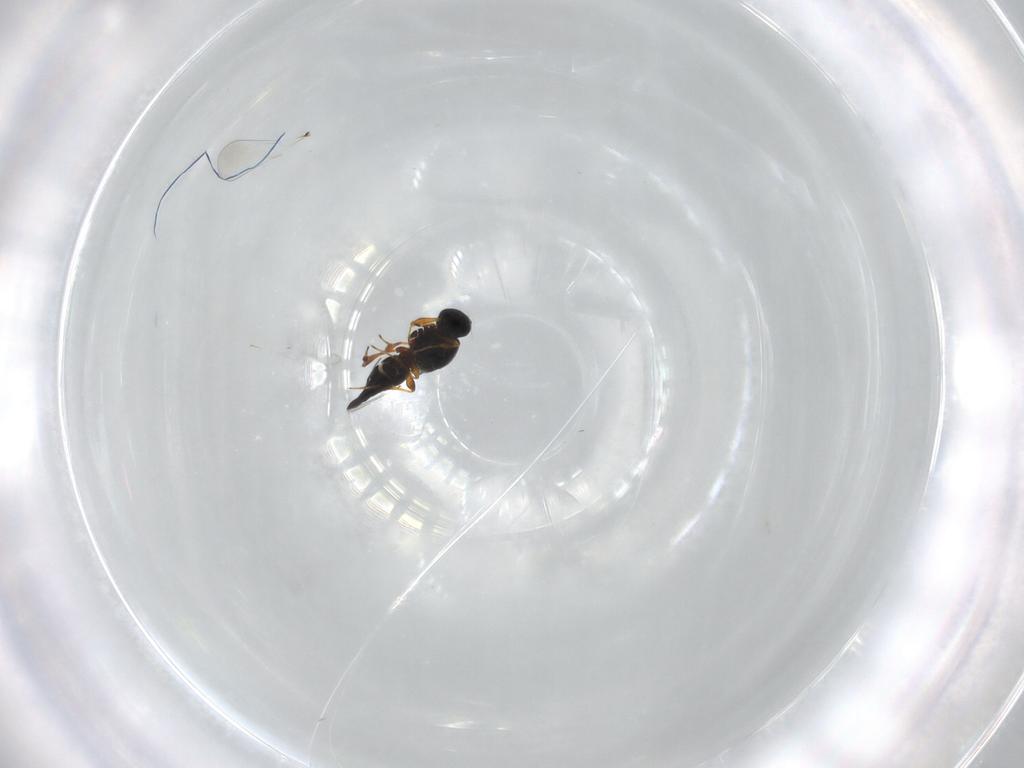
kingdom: Animalia
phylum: Arthropoda
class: Insecta
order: Hymenoptera
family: Platygastridae
